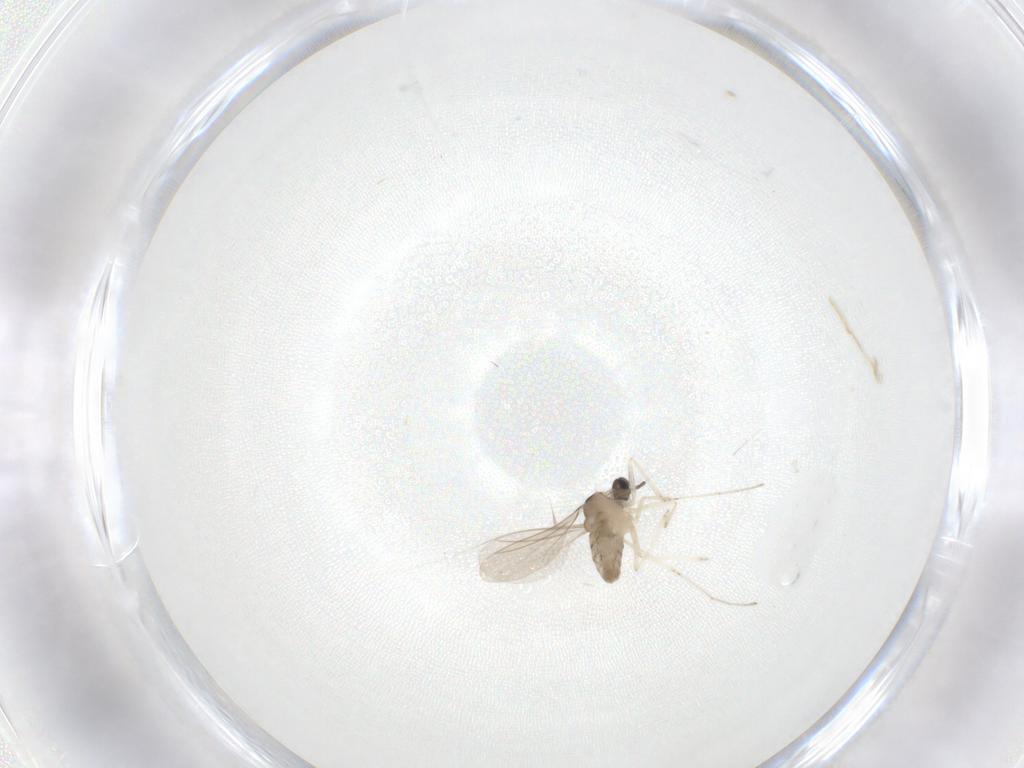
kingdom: Animalia
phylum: Arthropoda
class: Insecta
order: Diptera
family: Cecidomyiidae
